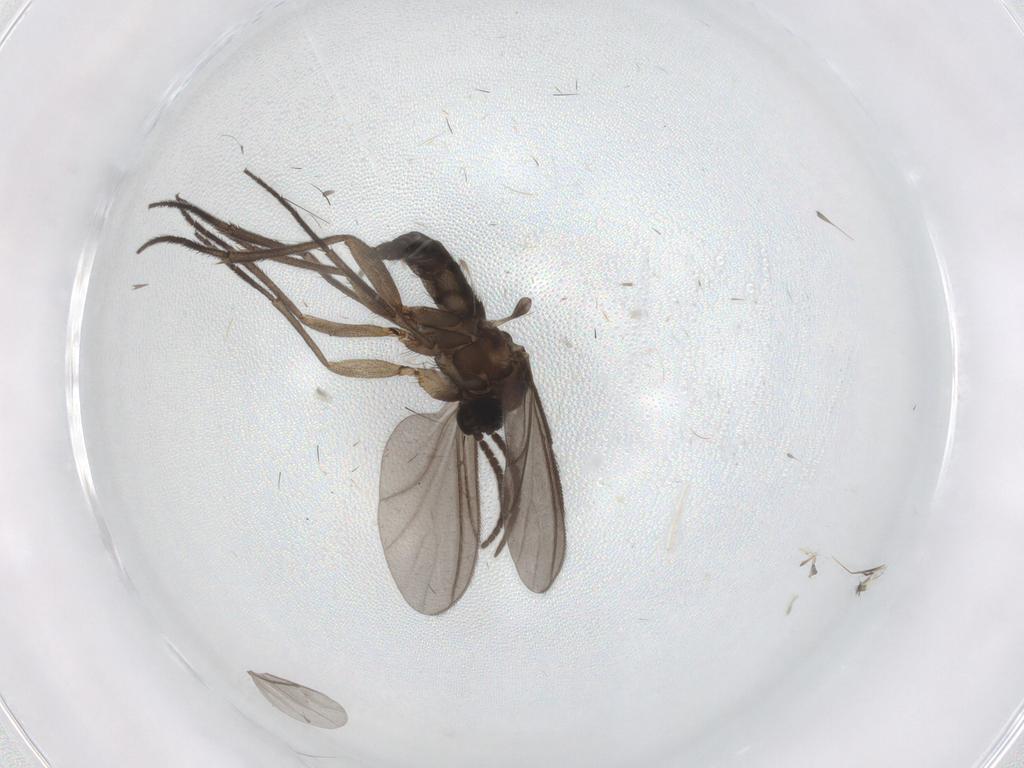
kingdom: Animalia
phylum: Arthropoda
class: Insecta
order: Diptera
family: Sciaridae
